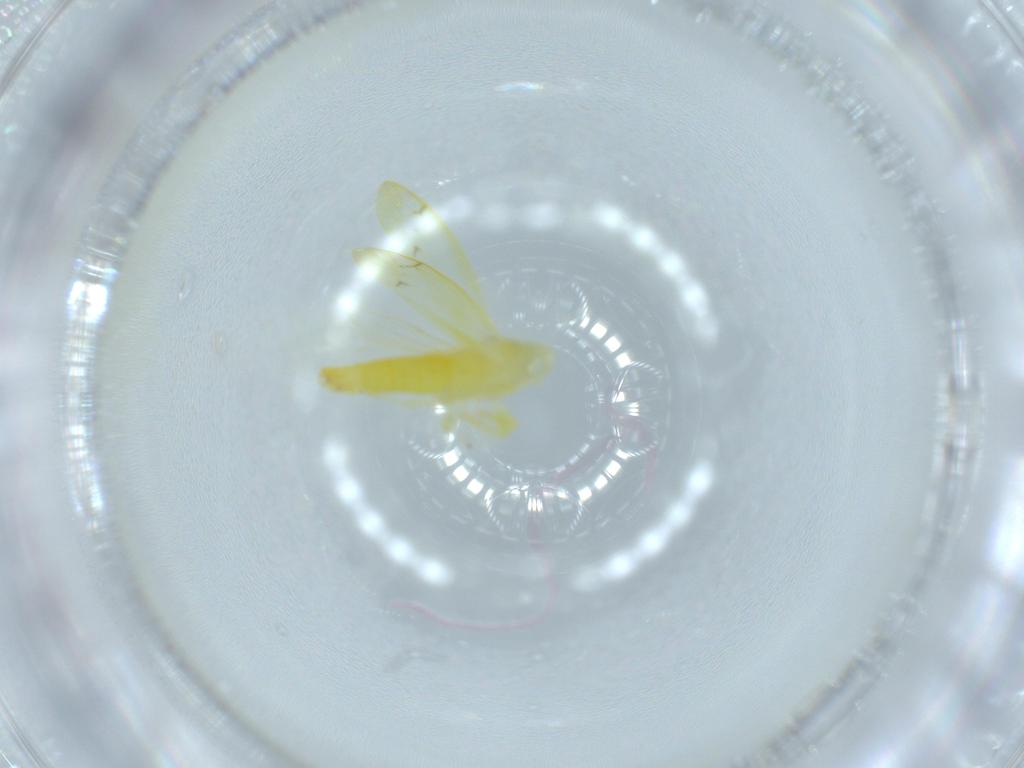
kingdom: Animalia
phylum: Arthropoda
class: Insecta
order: Hemiptera
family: Cicadellidae
